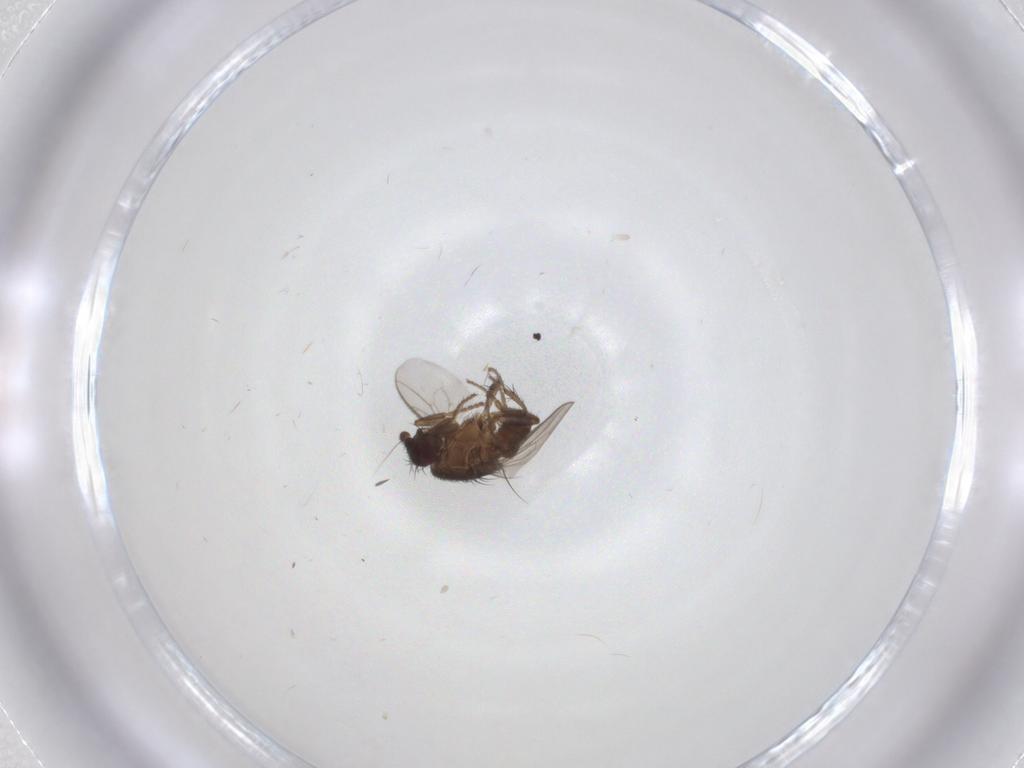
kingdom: Animalia
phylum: Arthropoda
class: Insecta
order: Diptera
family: Sphaeroceridae
